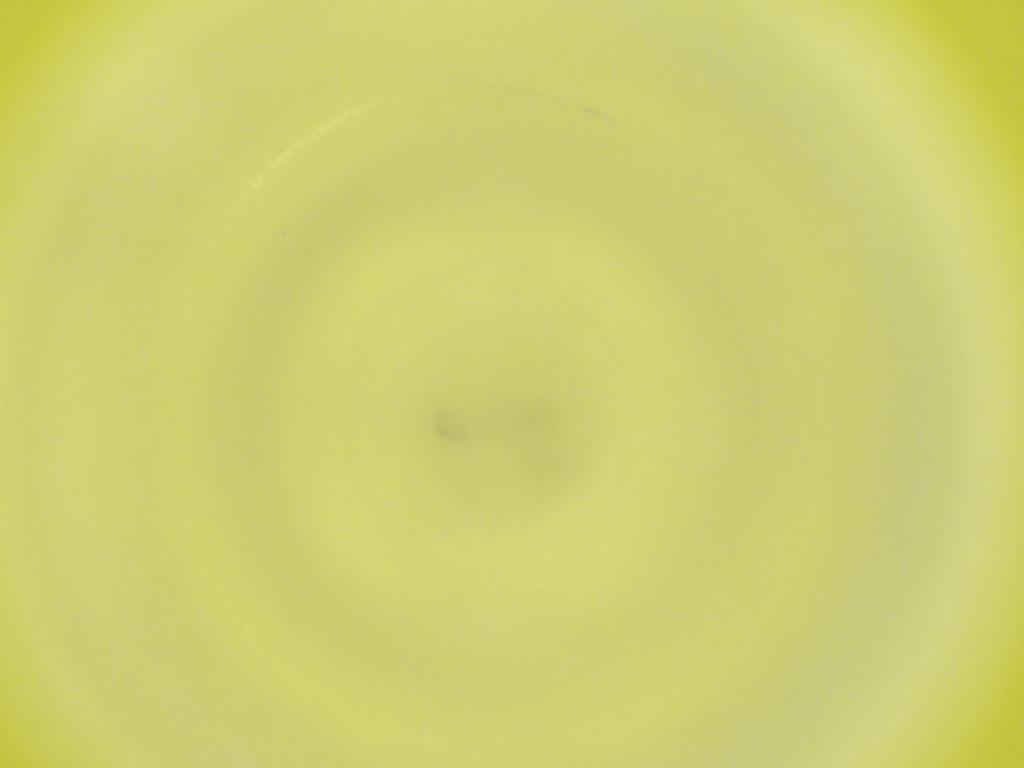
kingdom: Animalia
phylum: Arthropoda
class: Insecta
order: Diptera
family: Cecidomyiidae
